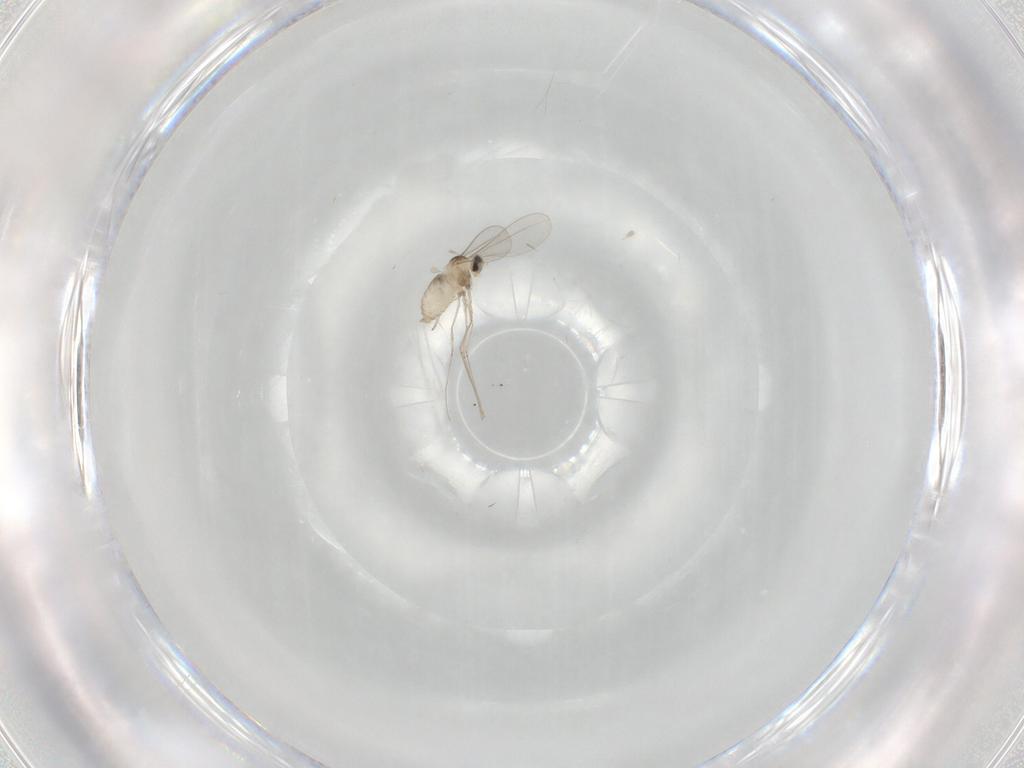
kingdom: Animalia
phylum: Arthropoda
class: Insecta
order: Diptera
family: Cecidomyiidae
